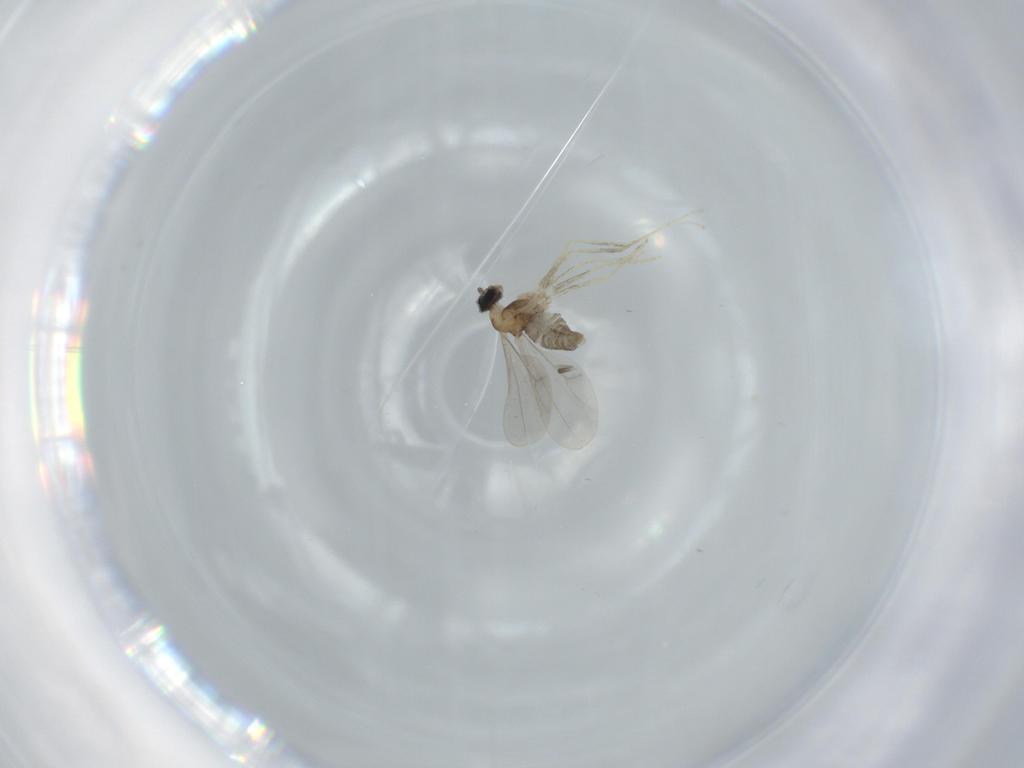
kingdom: Animalia
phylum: Arthropoda
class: Insecta
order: Diptera
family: Cecidomyiidae
